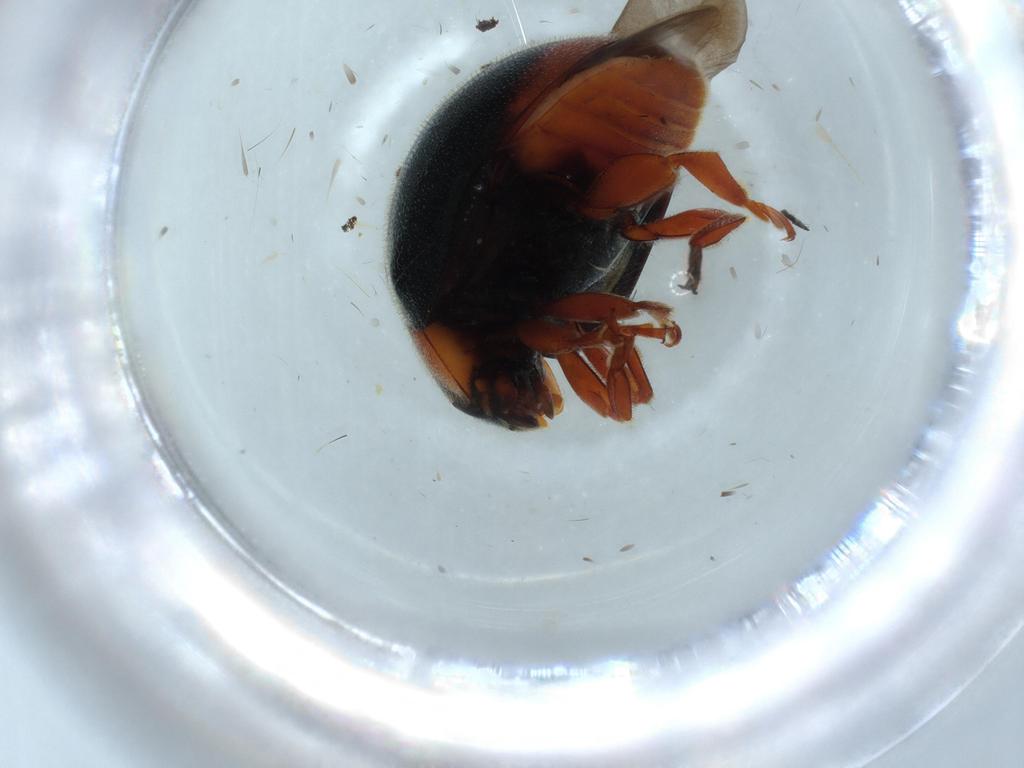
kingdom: Animalia
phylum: Arthropoda
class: Insecta
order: Coleoptera
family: Coccinellidae
